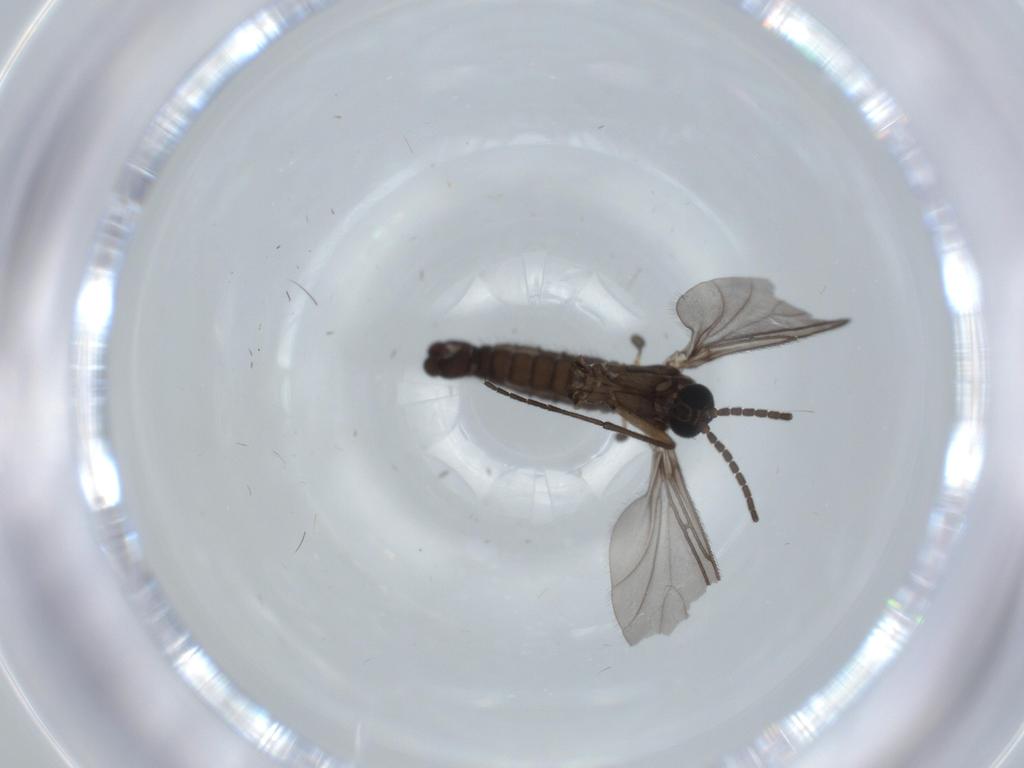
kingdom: Animalia
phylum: Arthropoda
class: Insecta
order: Diptera
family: Sciaridae
